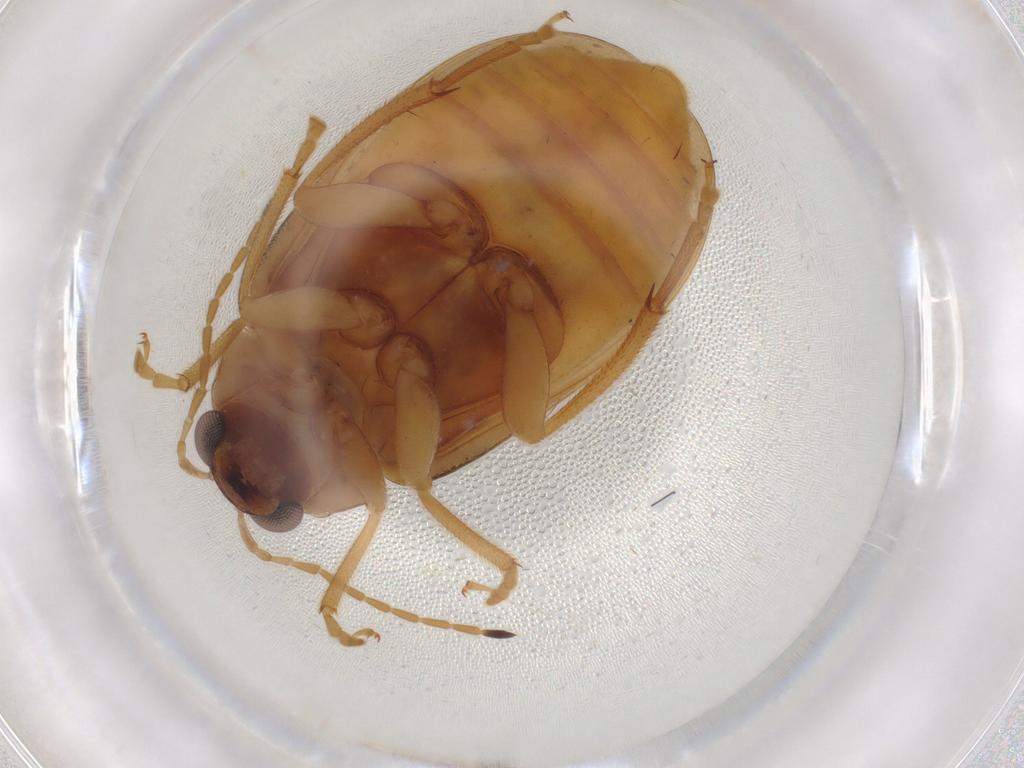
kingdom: Animalia
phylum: Arthropoda
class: Insecta
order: Coleoptera
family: Chrysomelidae
